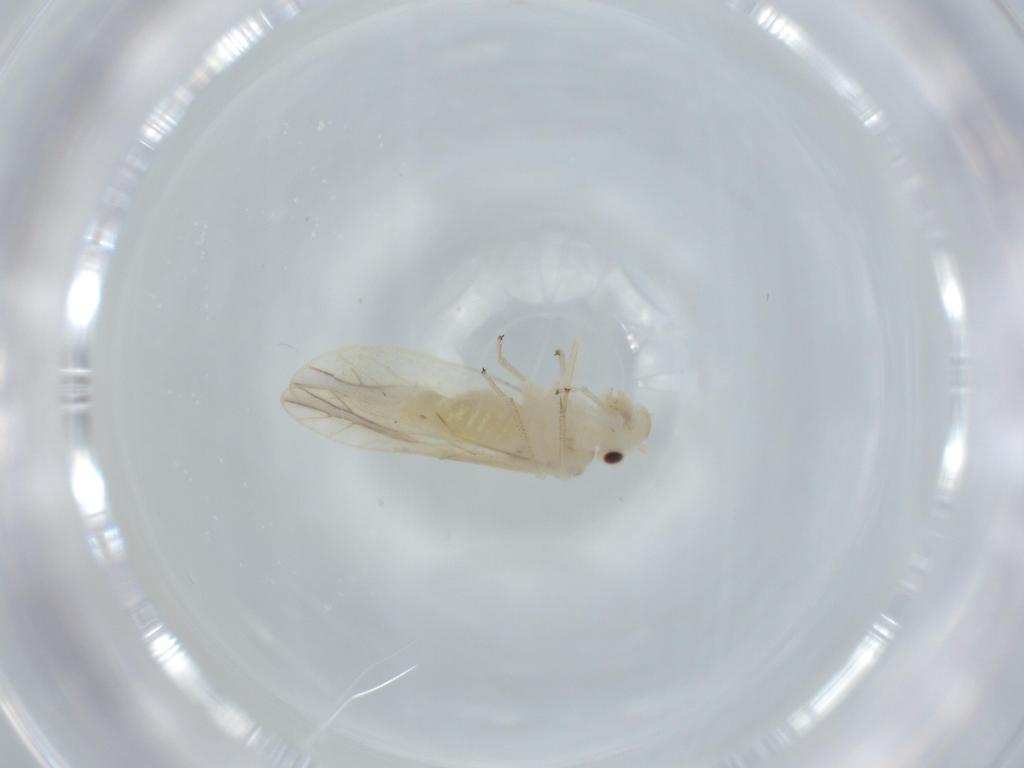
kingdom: Animalia
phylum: Arthropoda
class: Insecta
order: Psocodea
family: Caeciliusidae
